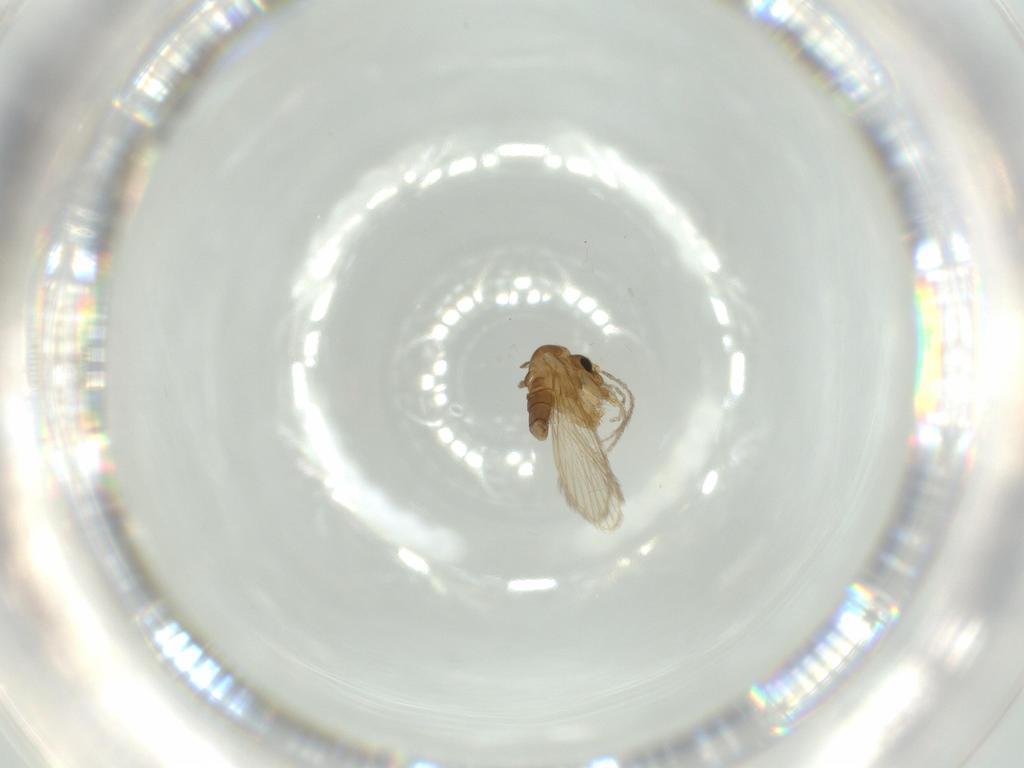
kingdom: Animalia
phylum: Arthropoda
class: Insecta
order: Diptera
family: Psychodidae
